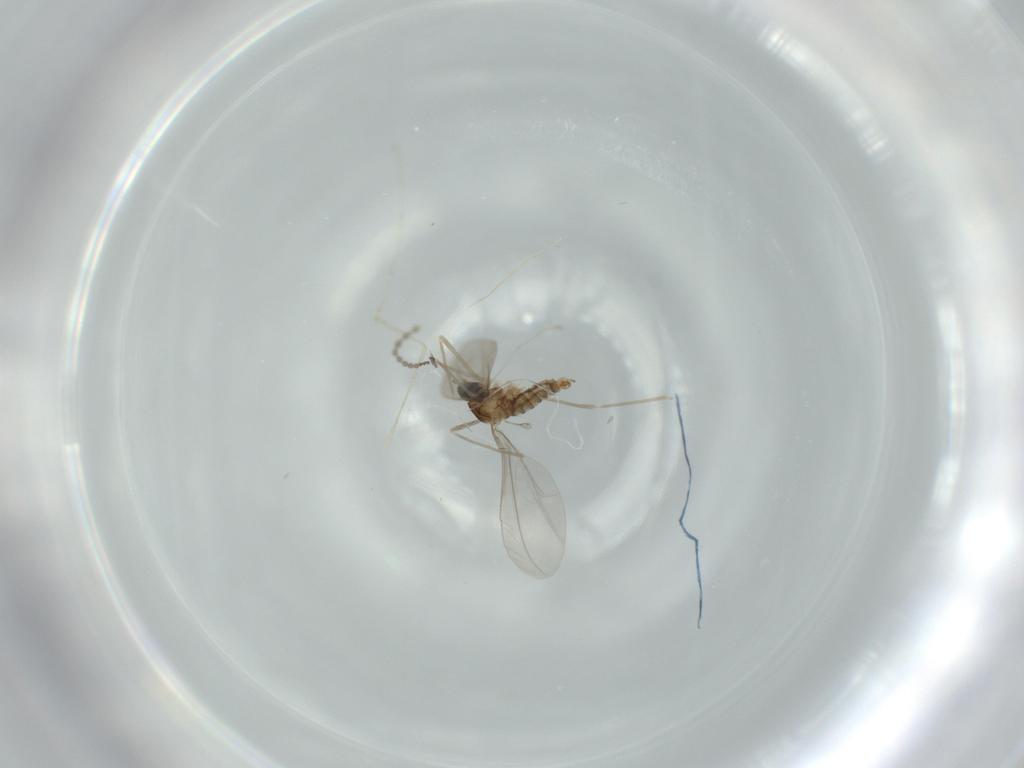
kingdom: Animalia
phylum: Arthropoda
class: Insecta
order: Diptera
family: Cecidomyiidae
